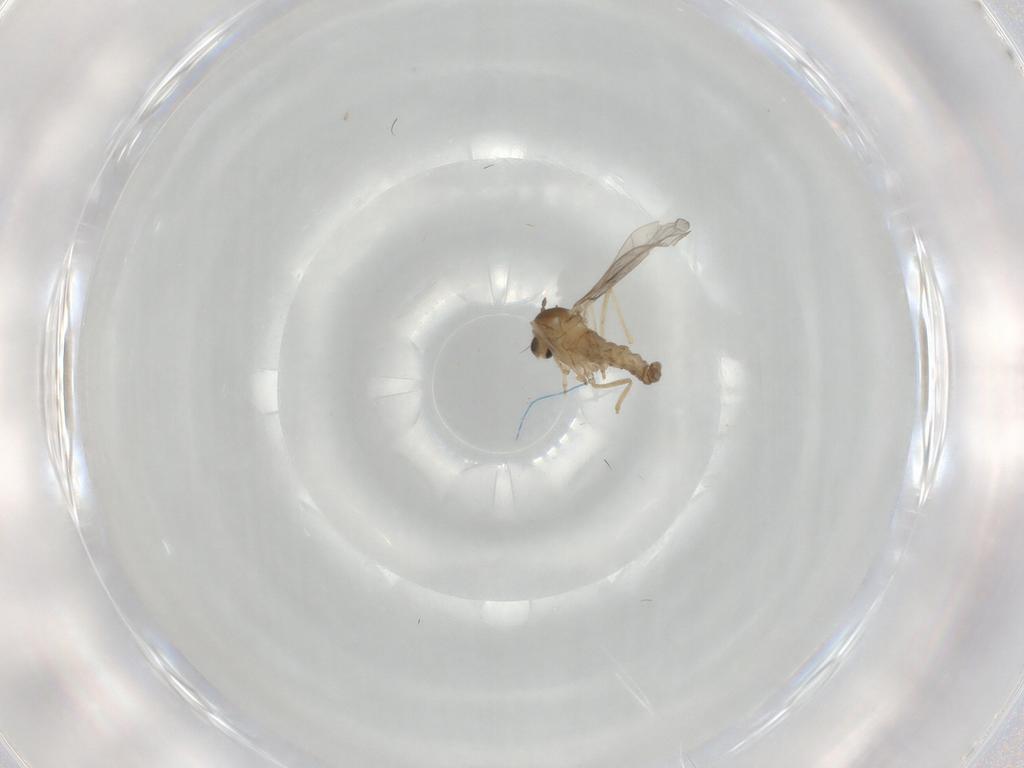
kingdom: Animalia
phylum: Arthropoda
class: Insecta
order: Diptera
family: Cecidomyiidae
